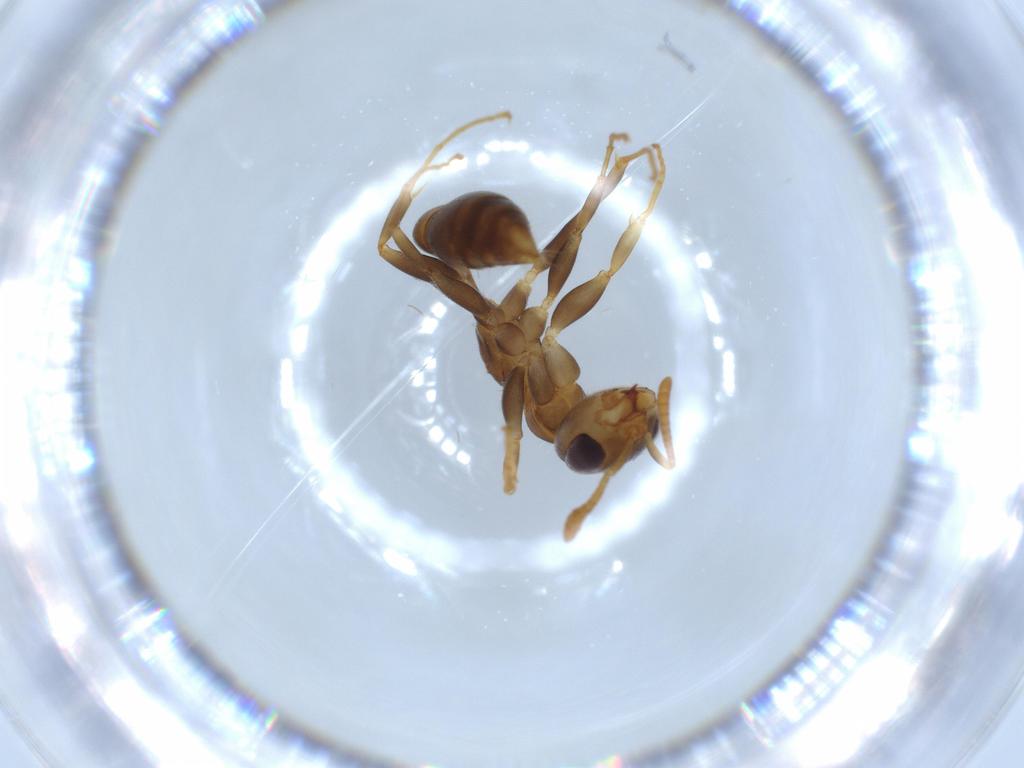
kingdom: Animalia
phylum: Arthropoda
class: Insecta
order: Hymenoptera
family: Formicidae
